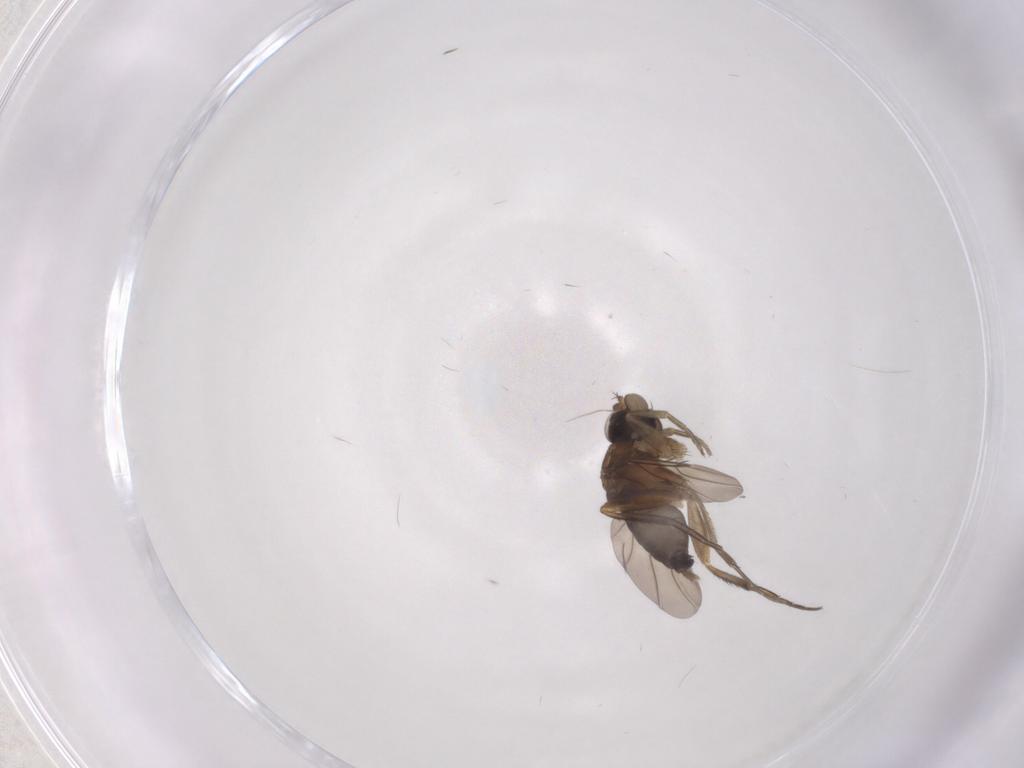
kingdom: Animalia
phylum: Arthropoda
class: Insecta
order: Diptera
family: Phoridae
